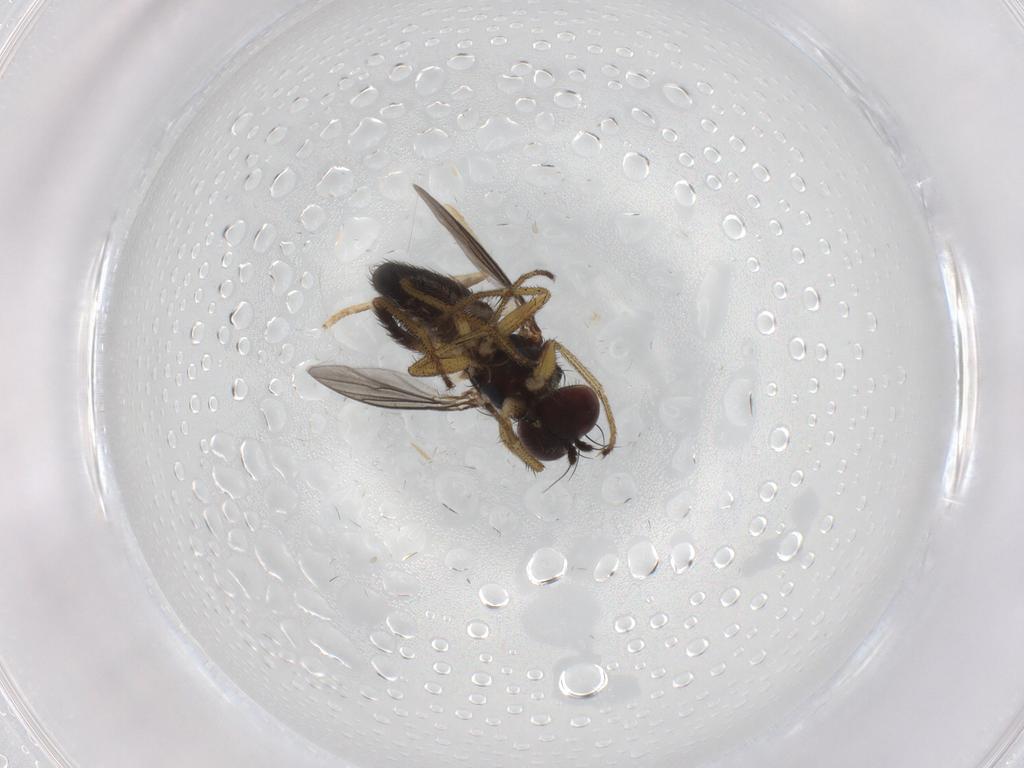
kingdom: Animalia
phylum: Arthropoda
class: Insecta
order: Diptera
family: Dolichopodidae
